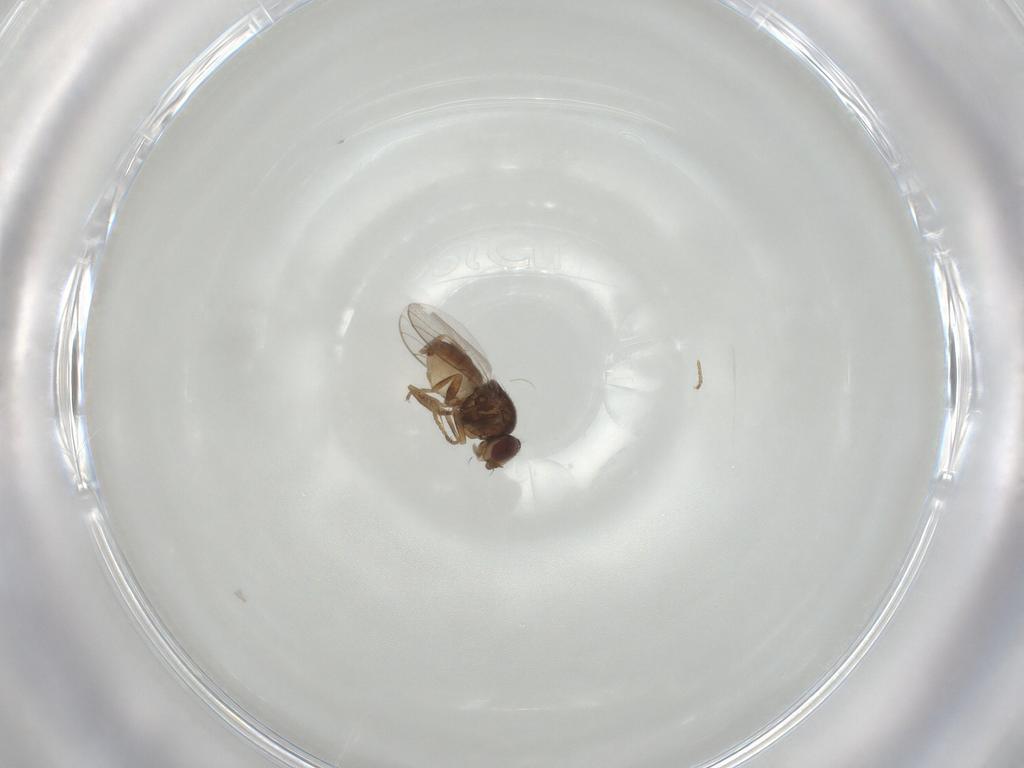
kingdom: Animalia
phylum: Arthropoda
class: Insecta
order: Diptera
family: Chloropidae
